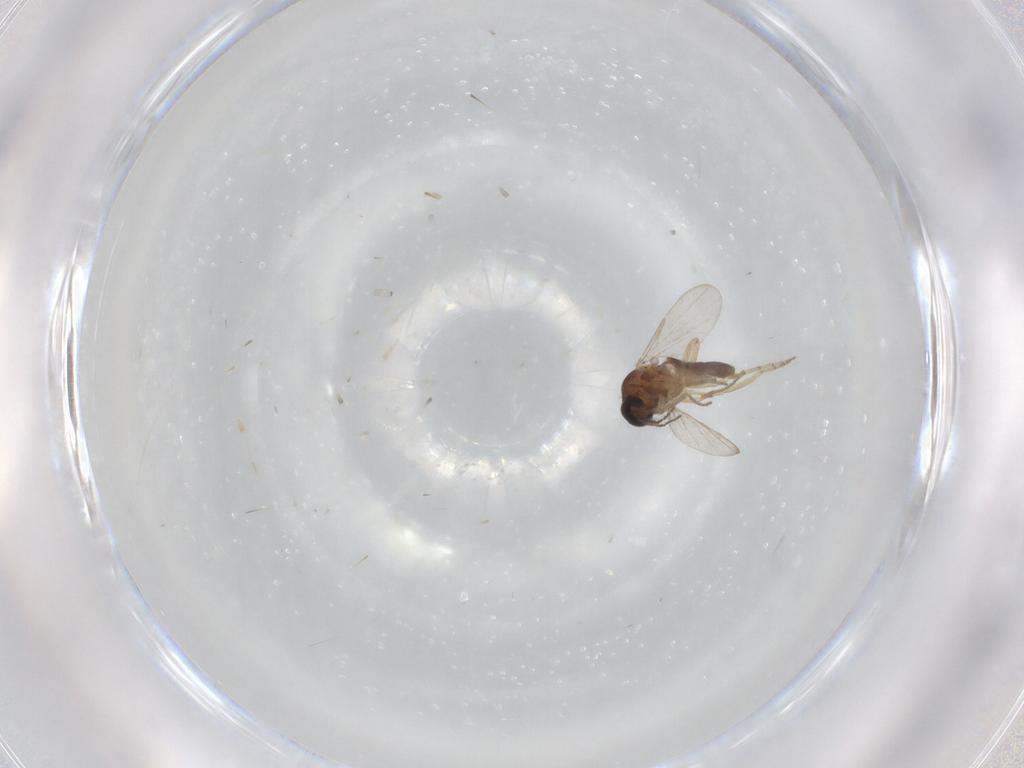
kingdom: Animalia
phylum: Arthropoda
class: Insecta
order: Diptera
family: Ceratopogonidae
